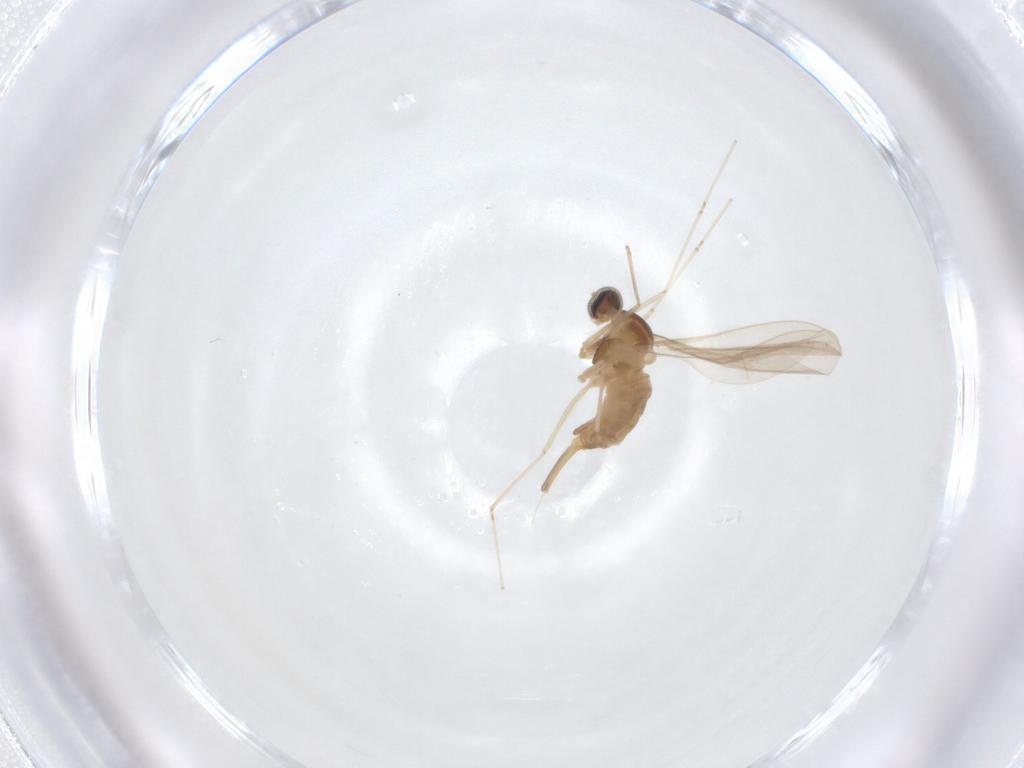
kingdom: Animalia
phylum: Arthropoda
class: Insecta
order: Diptera
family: Cecidomyiidae
